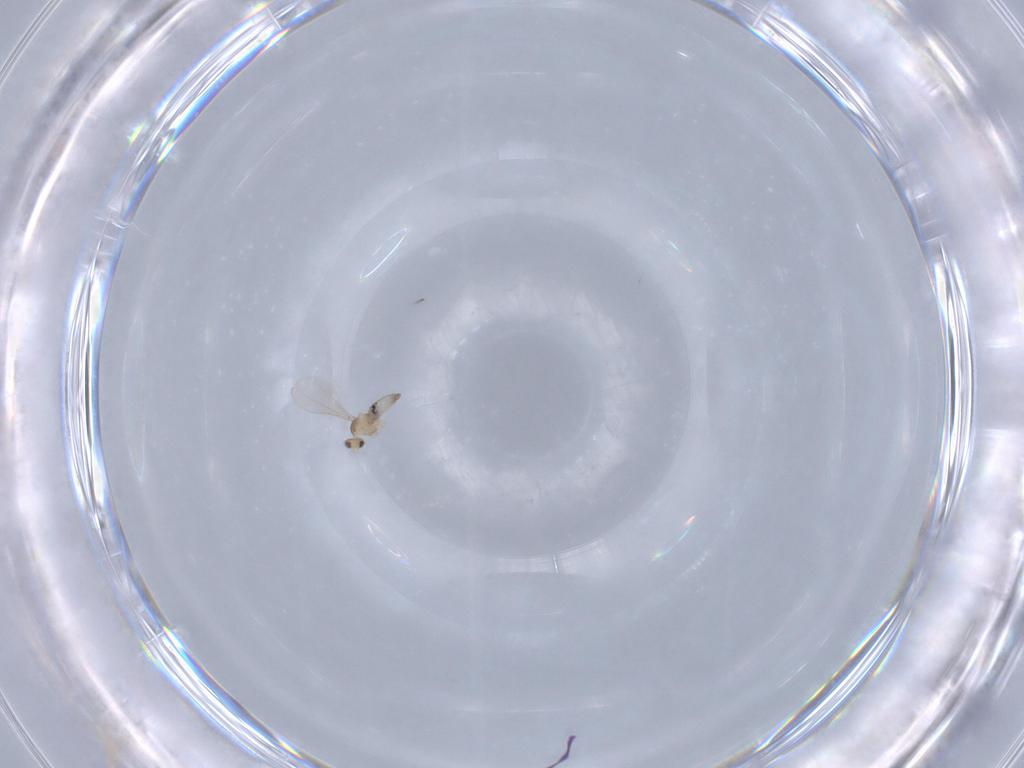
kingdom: Animalia
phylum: Arthropoda
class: Insecta
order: Diptera
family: Cecidomyiidae
